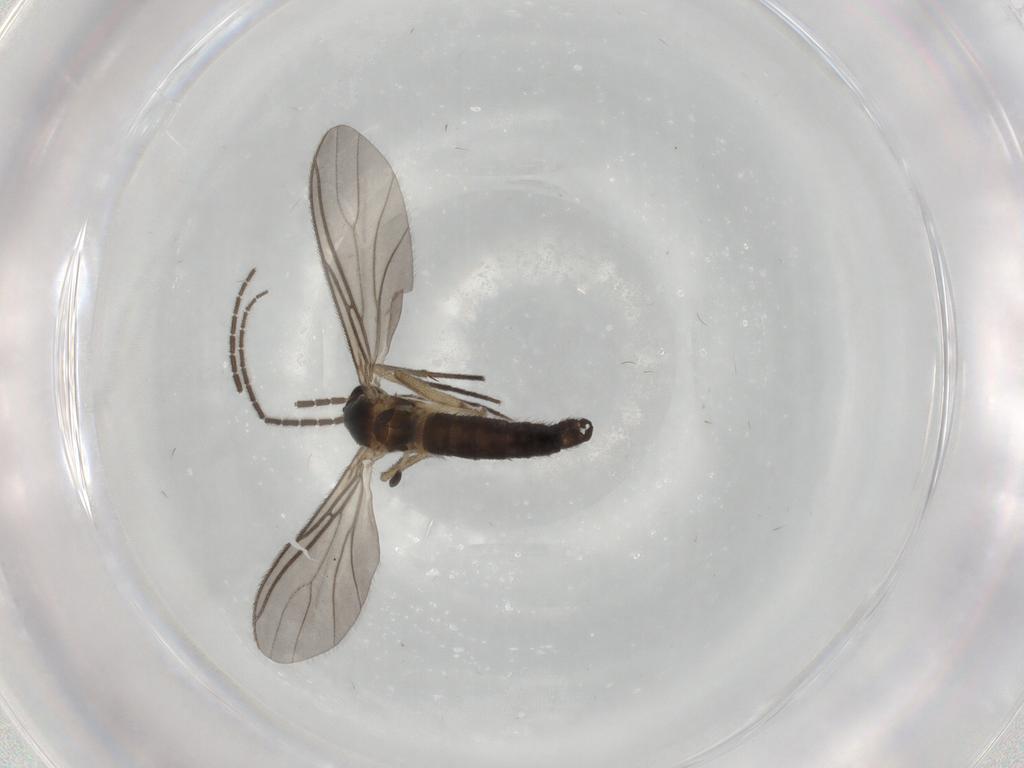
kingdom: Animalia
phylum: Arthropoda
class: Insecta
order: Diptera
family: Sciaridae
